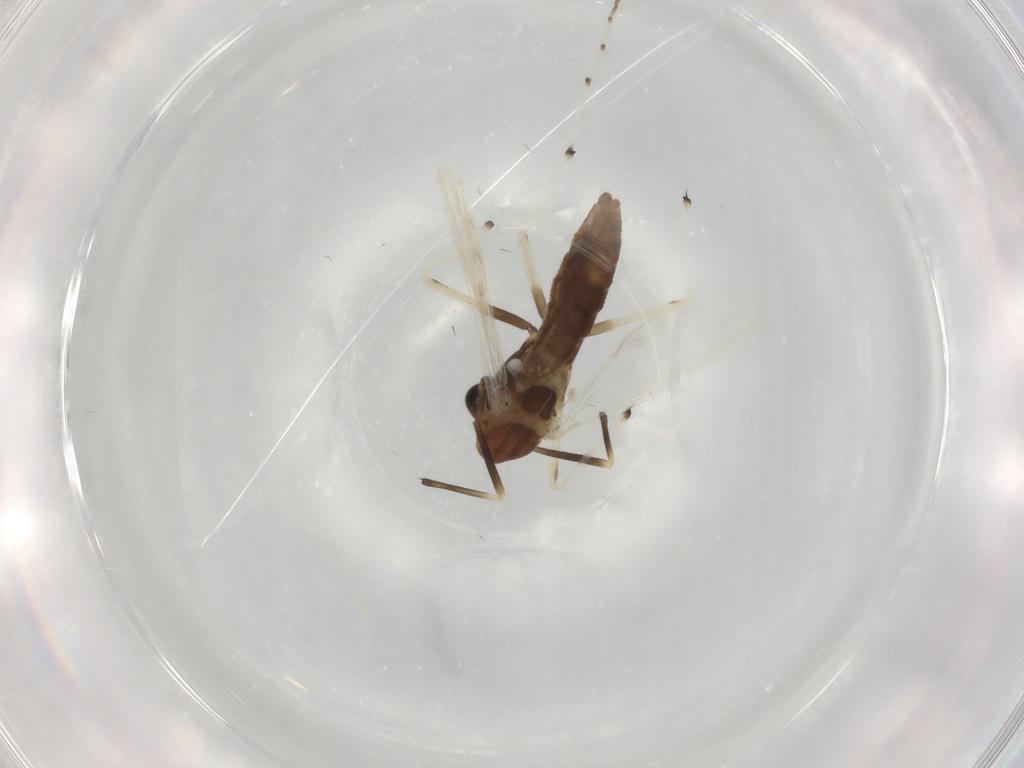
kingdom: Animalia
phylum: Arthropoda
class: Insecta
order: Diptera
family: Chironomidae
